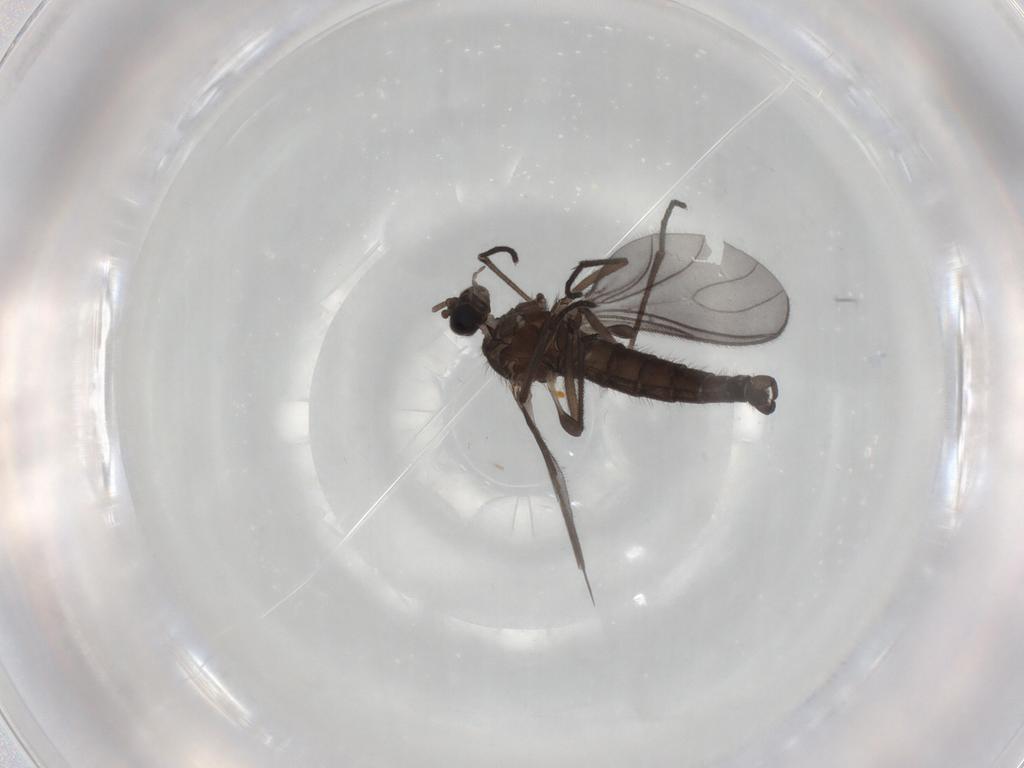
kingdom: Animalia
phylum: Arthropoda
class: Insecta
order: Diptera
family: Sciaridae
